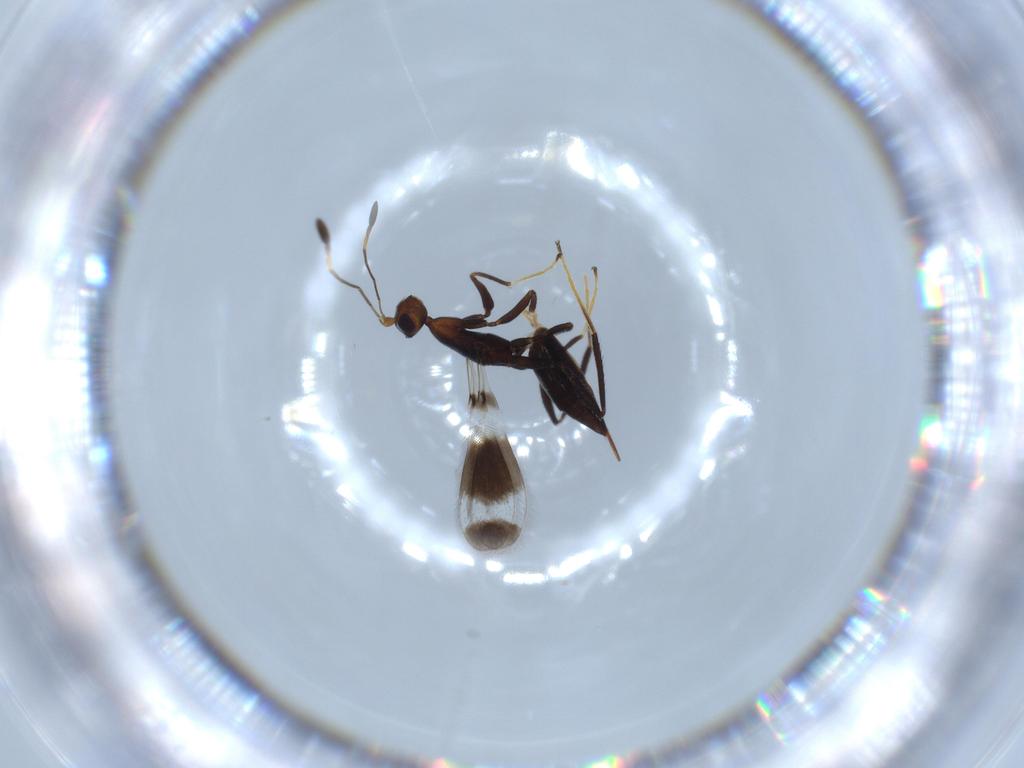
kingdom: Animalia
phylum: Arthropoda
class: Insecta
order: Hymenoptera
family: Mymaridae
